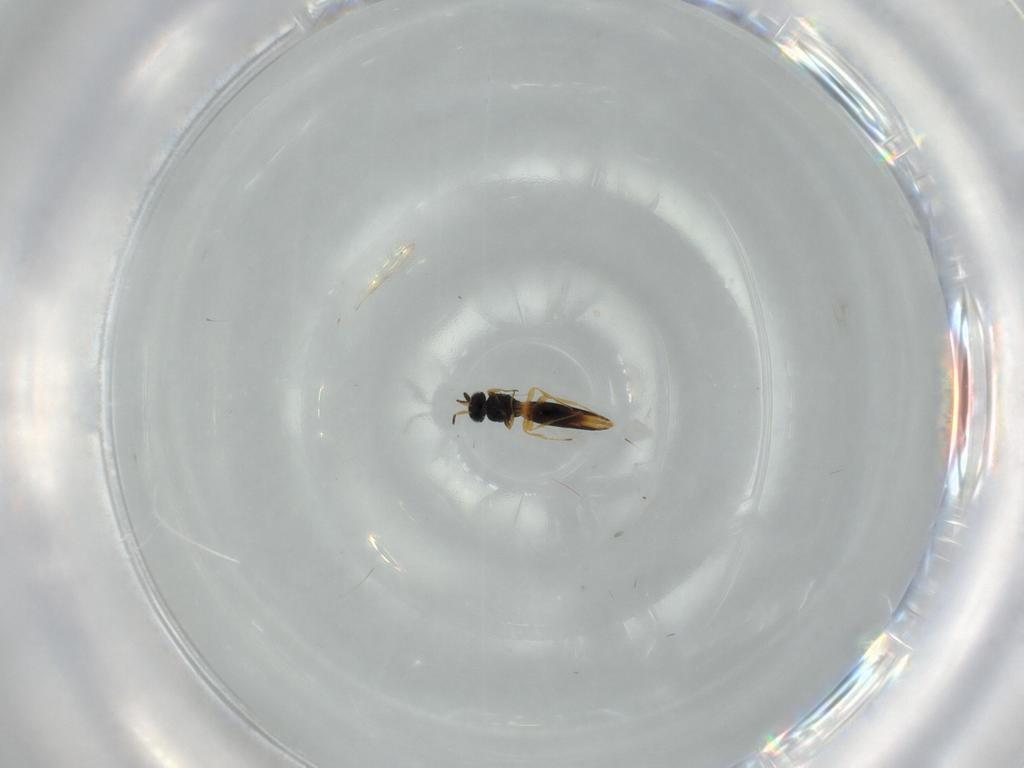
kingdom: Animalia
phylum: Arthropoda
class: Insecta
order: Hymenoptera
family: Scelionidae
